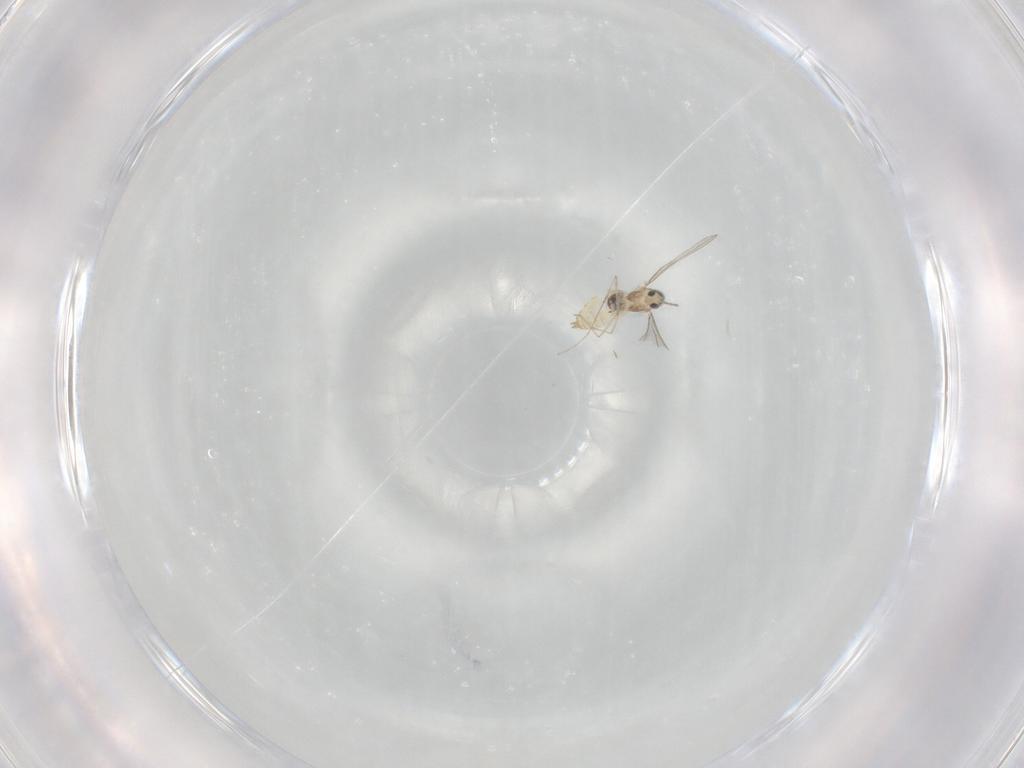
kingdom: Animalia
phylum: Arthropoda
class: Insecta
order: Diptera
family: Cecidomyiidae
